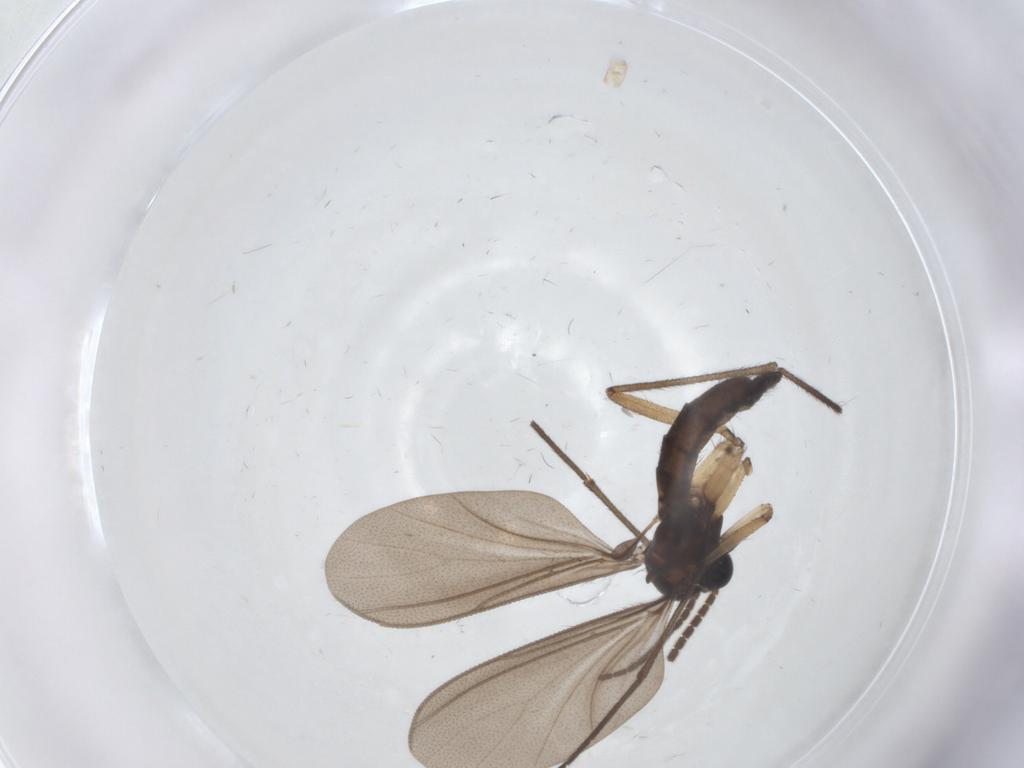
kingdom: Animalia
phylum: Arthropoda
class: Insecta
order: Diptera
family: Sciaridae
